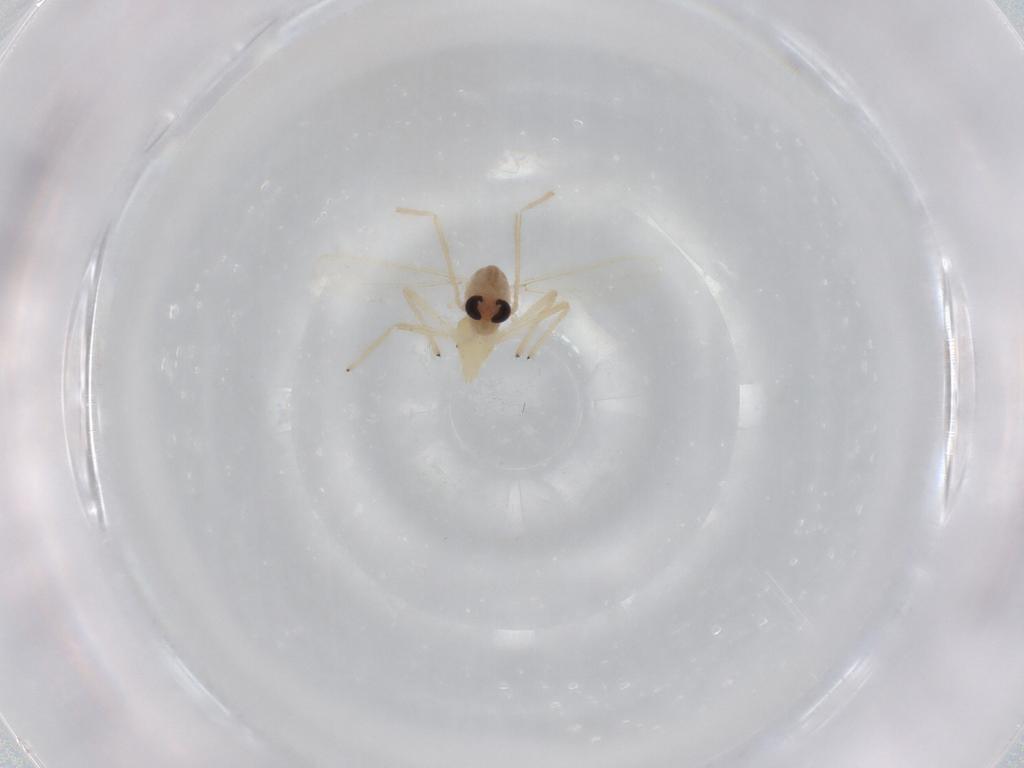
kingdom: Animalia
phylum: Arthropoda
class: Insecta
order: Diptera
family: Chironomidae
